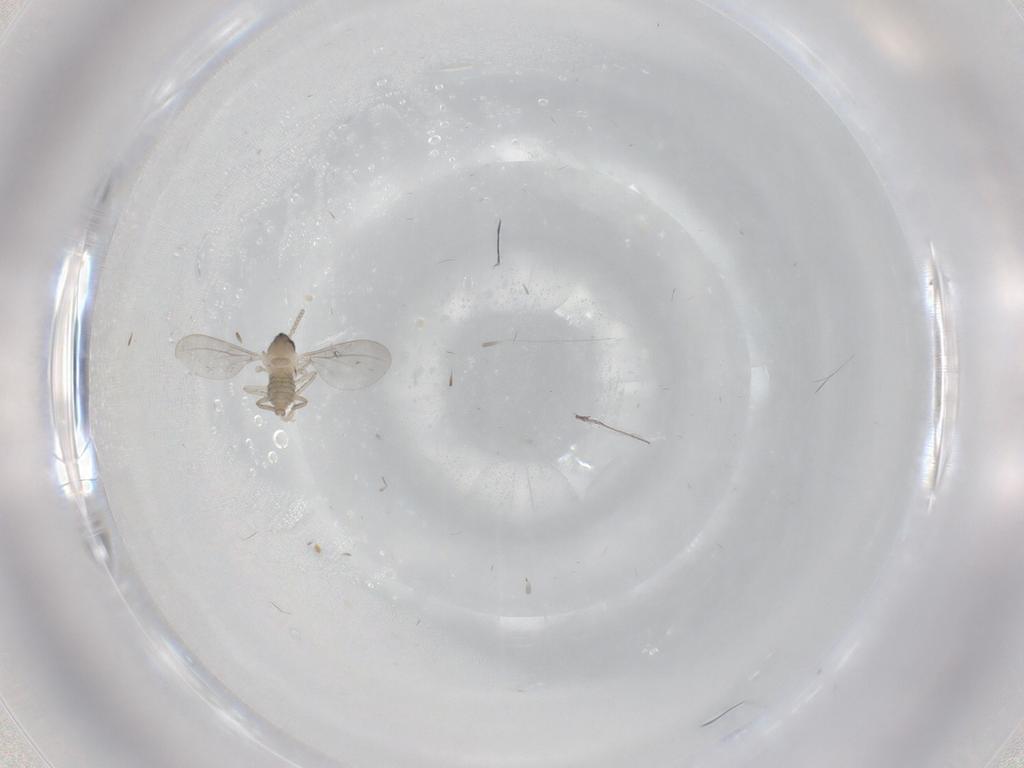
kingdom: Animalia
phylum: Arthropoda
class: Insecta
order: Diptera
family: Cecidomyiidae
